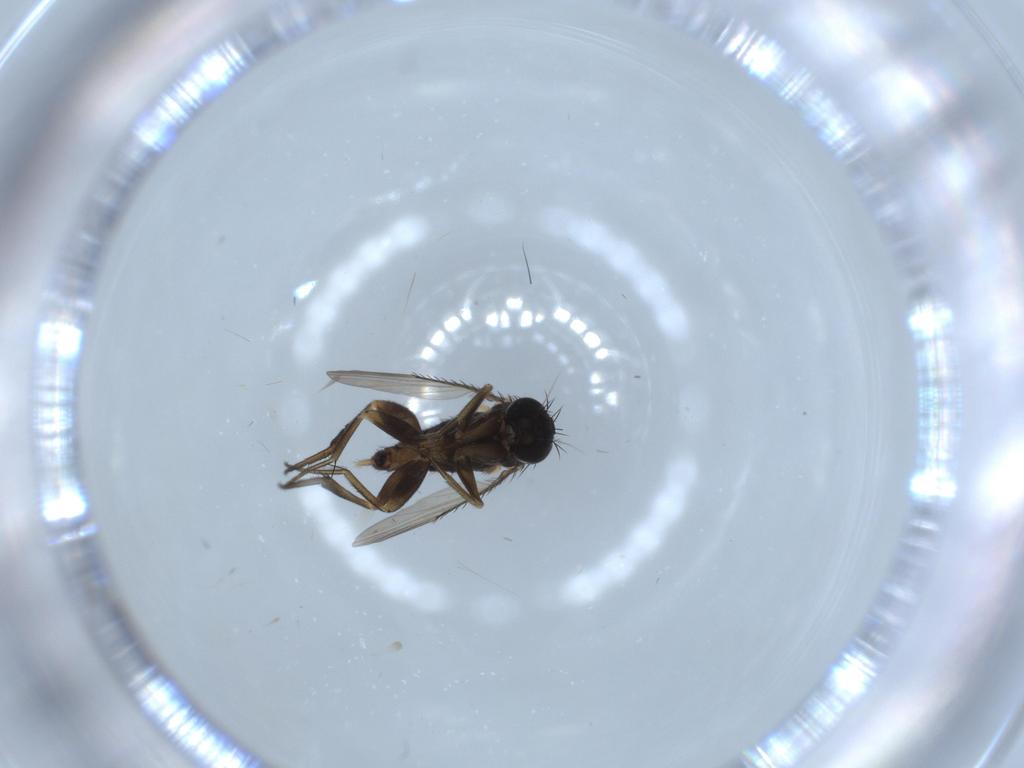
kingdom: Animalia
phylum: Arthropoda
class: Insecta
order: Diptera
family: Phoridae
